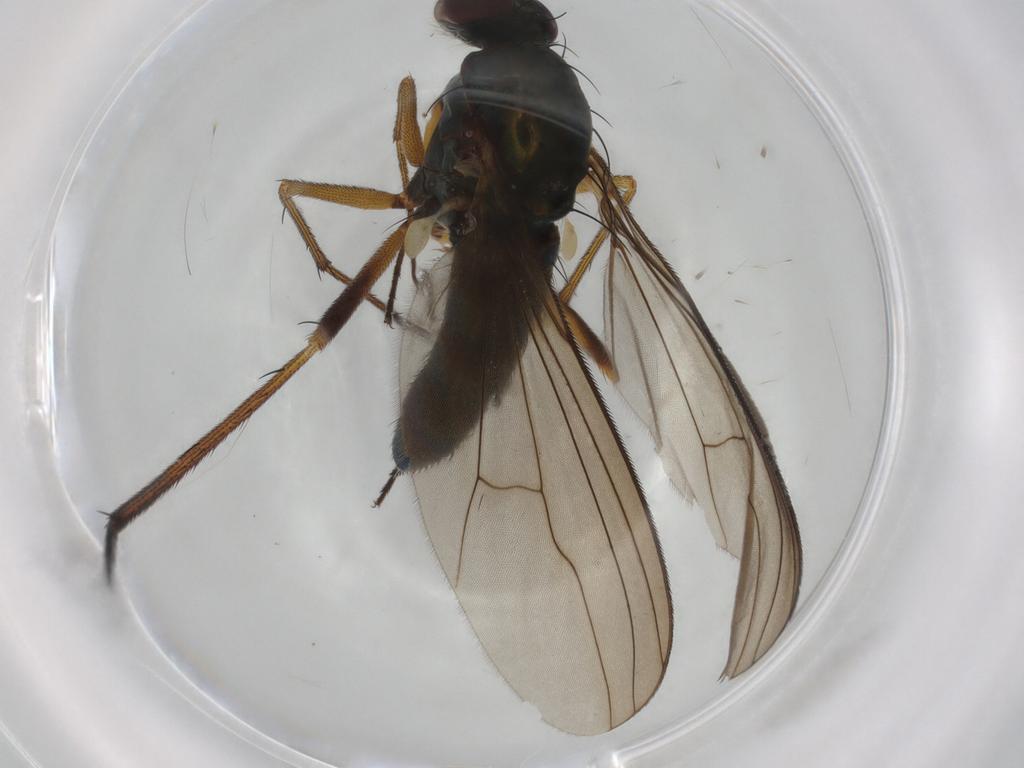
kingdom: Animalia
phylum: Arthropoda
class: Insecta
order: Diptera
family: Dolichopodidae
